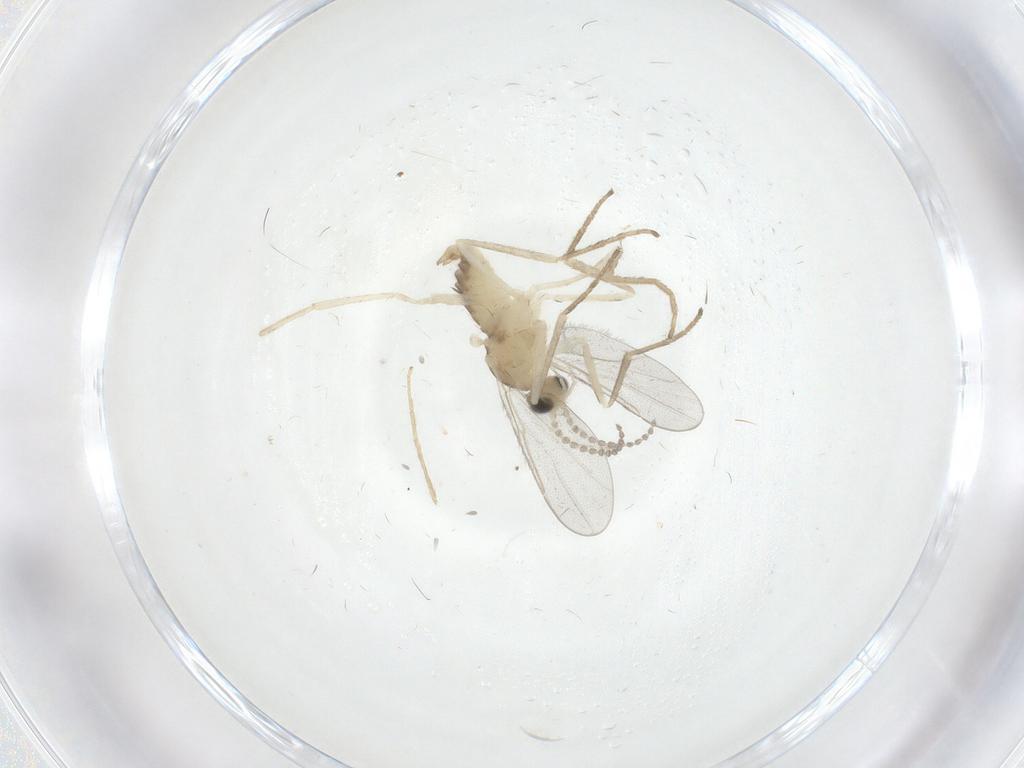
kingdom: Animalia
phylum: Arthropoda
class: Insecta
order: Diptera
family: Cecidomyiidae
